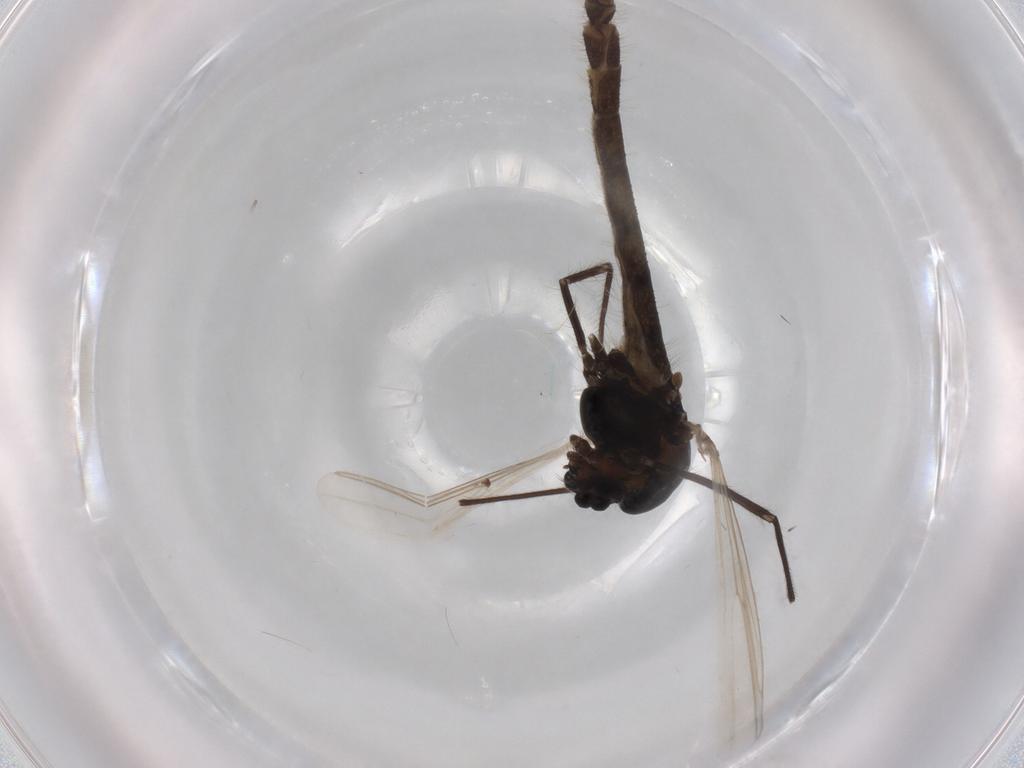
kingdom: Animalia
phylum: Arthropoda
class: Insecta
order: Diptera
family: Chironomidae
